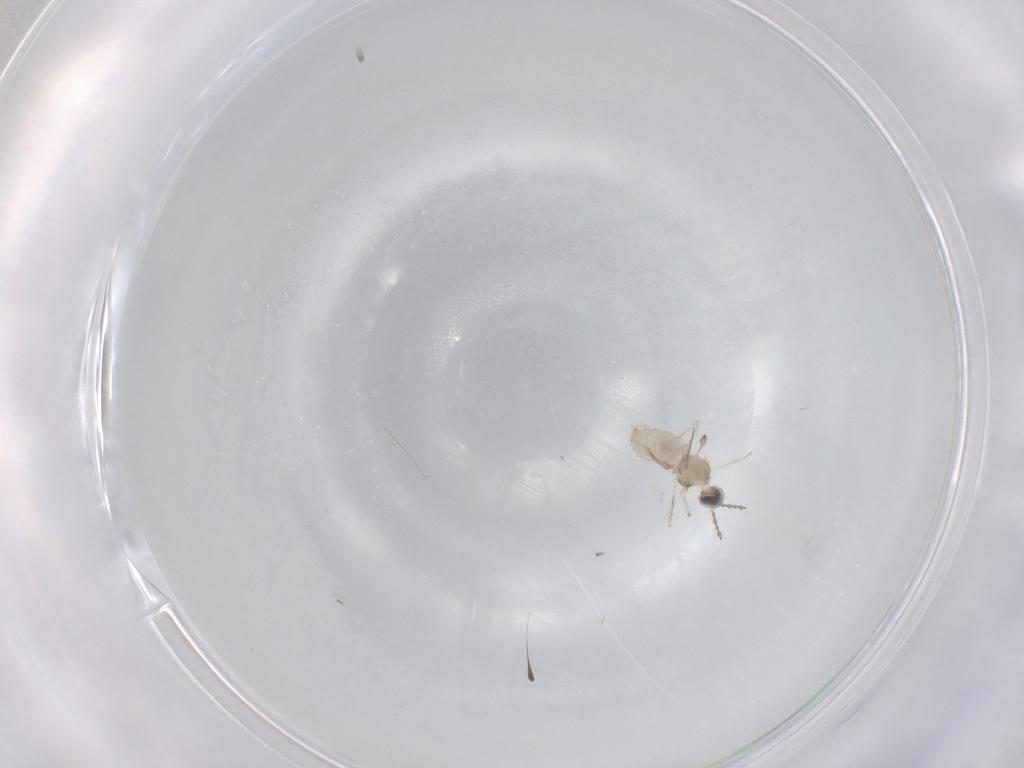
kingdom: Animalia
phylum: Arthropoda
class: Insecta
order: Diptera
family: Cecidomyiidae
